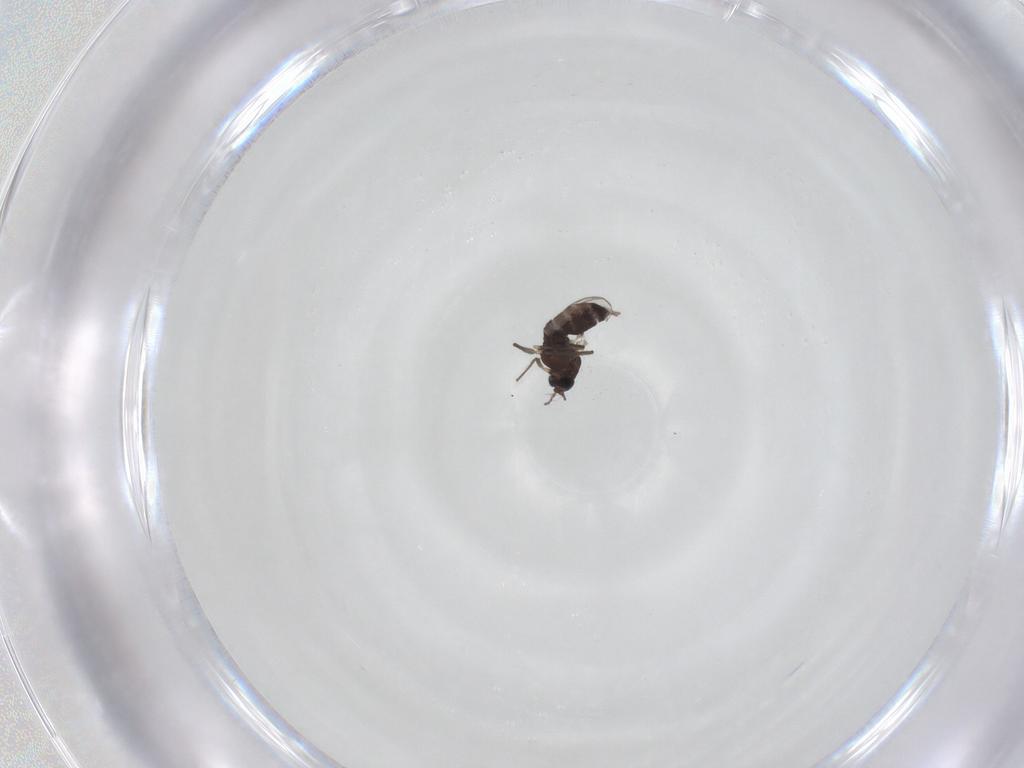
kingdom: Animalia
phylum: Arthropoda
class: Insecta
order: Diptera
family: Chironomidae
